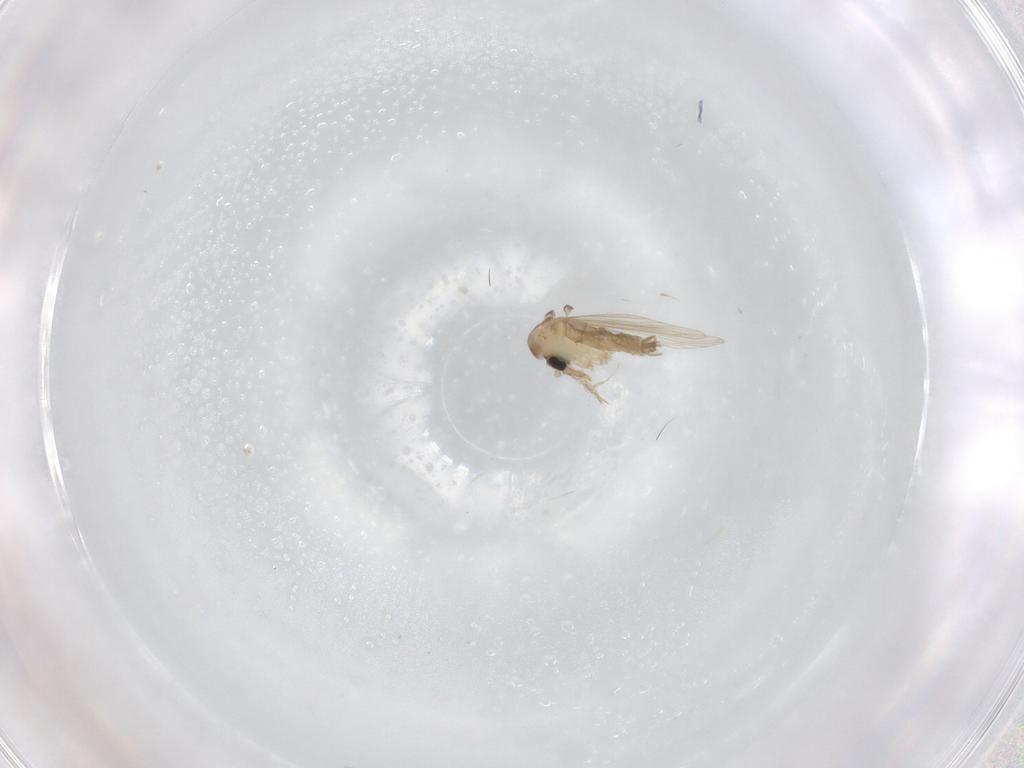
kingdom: Animalia
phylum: Arthropoda
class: Insecta
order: Diptera
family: Psychodidae
